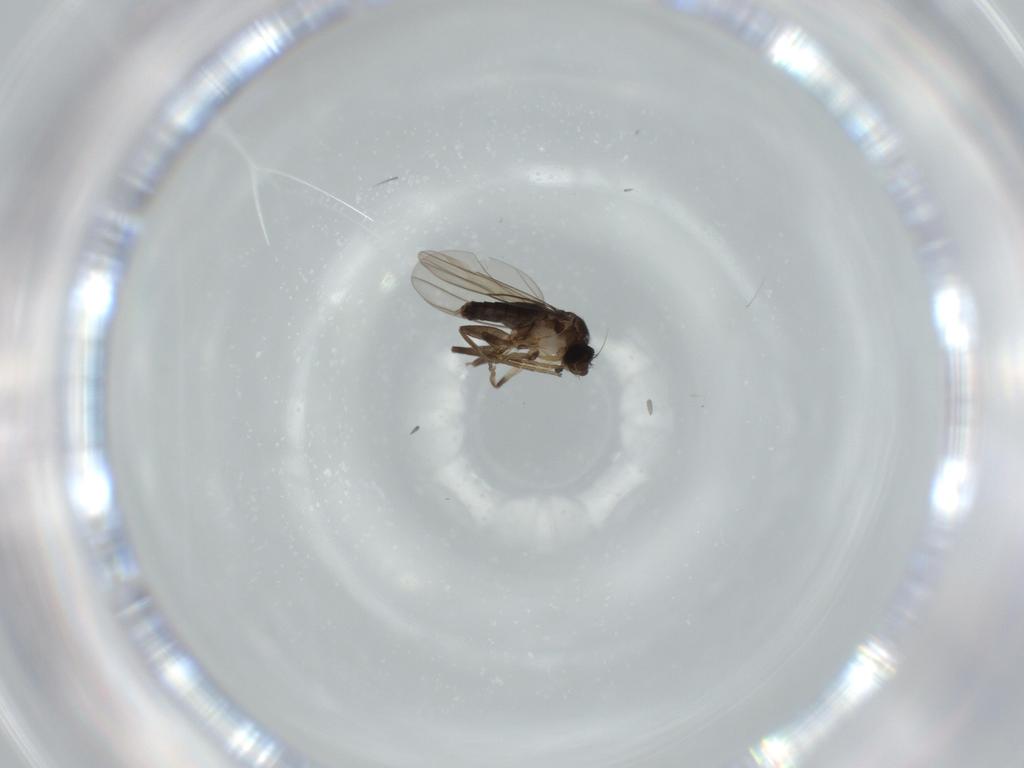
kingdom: Animalia
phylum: Arthropoda
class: Insecta
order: Diptera
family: Phoridae
